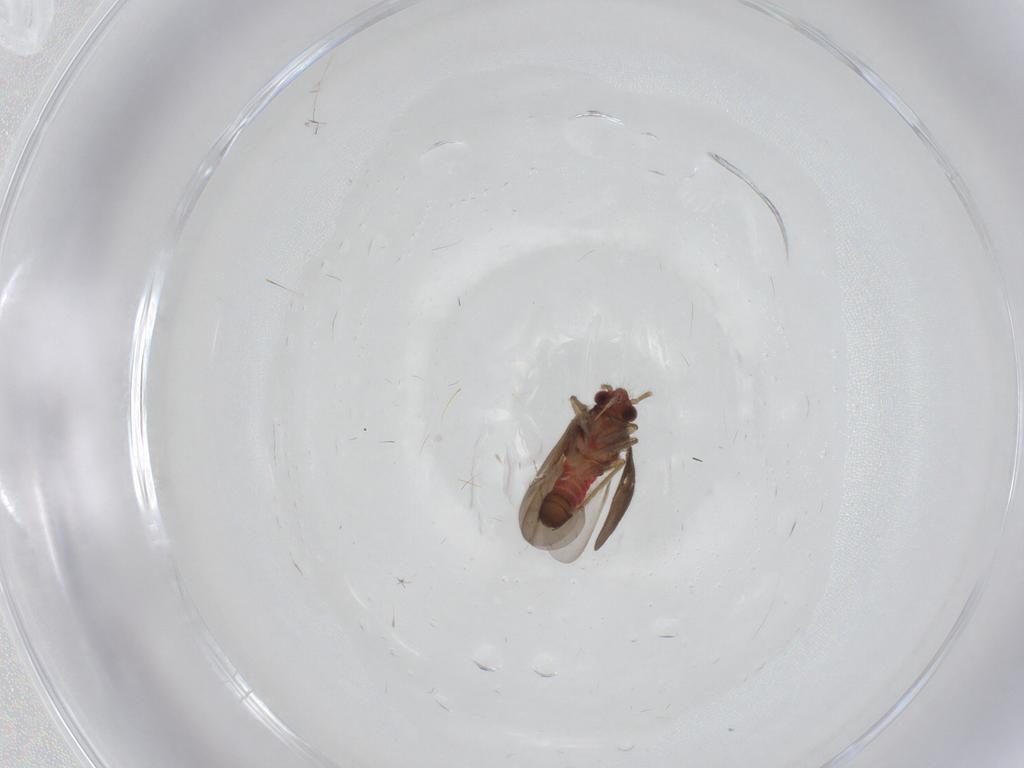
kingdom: Animalia
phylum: Arthropoda
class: Insecta
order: Hemiptera
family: Ceratocombidae
